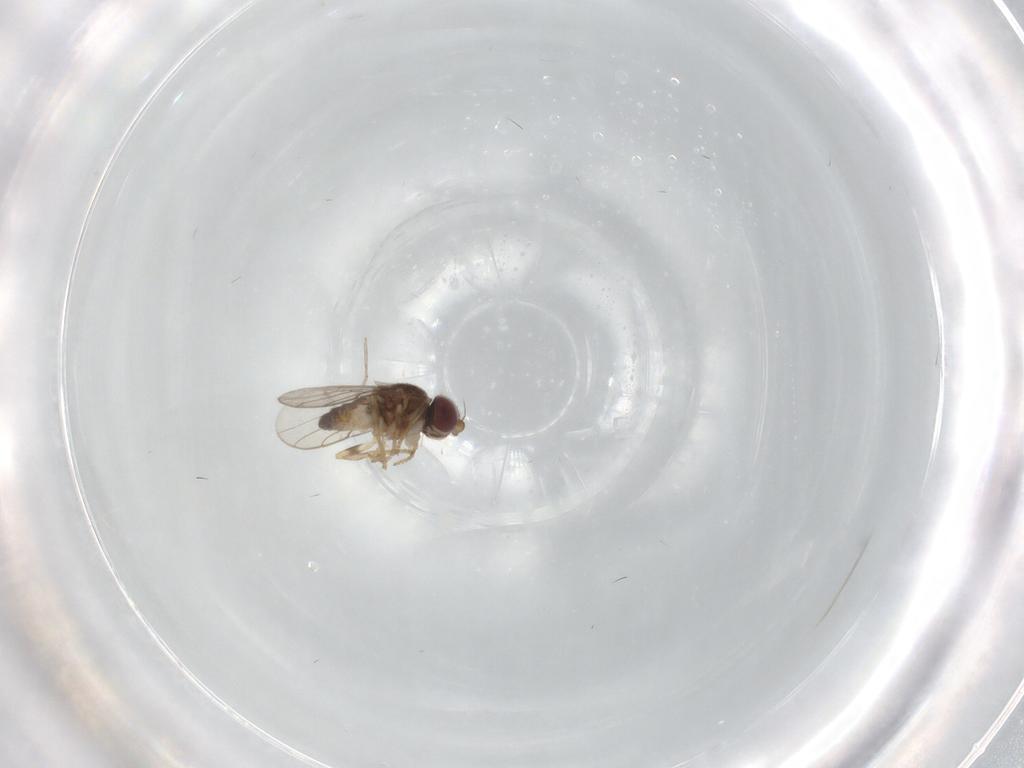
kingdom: Animalia
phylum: Arthropoda
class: Insecta
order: Diptera
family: Chloropidae
